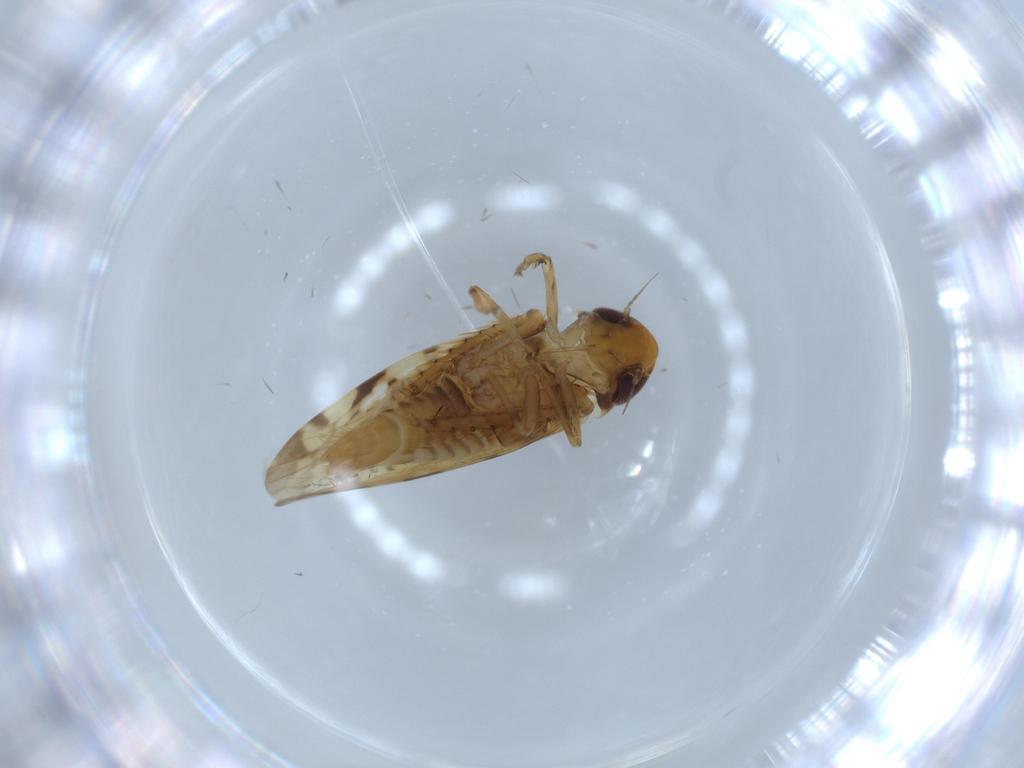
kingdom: Animalia
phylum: Arthropoda
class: Insecta
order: Hemiptera
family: Cicadellidae
